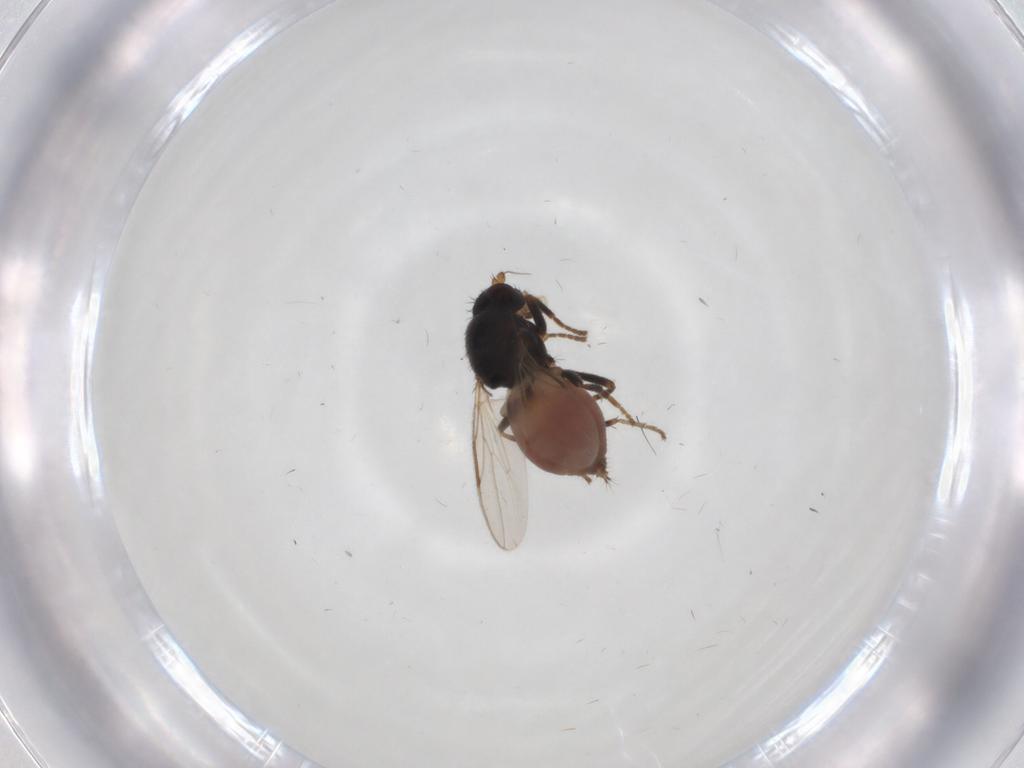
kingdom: Animalia
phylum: Arthropoda
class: Insecta
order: Diptera
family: Sphaeroceridae
